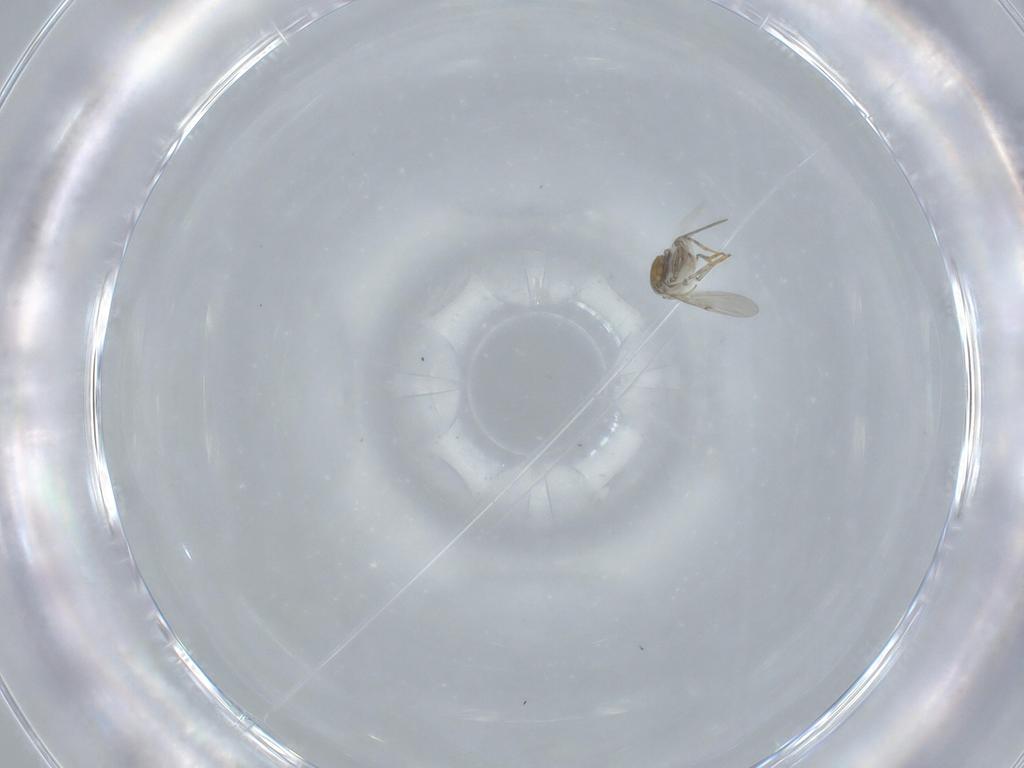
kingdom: Animalia
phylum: Arthropoda
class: Insecta
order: Hymenoptera
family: Encyrtidae
